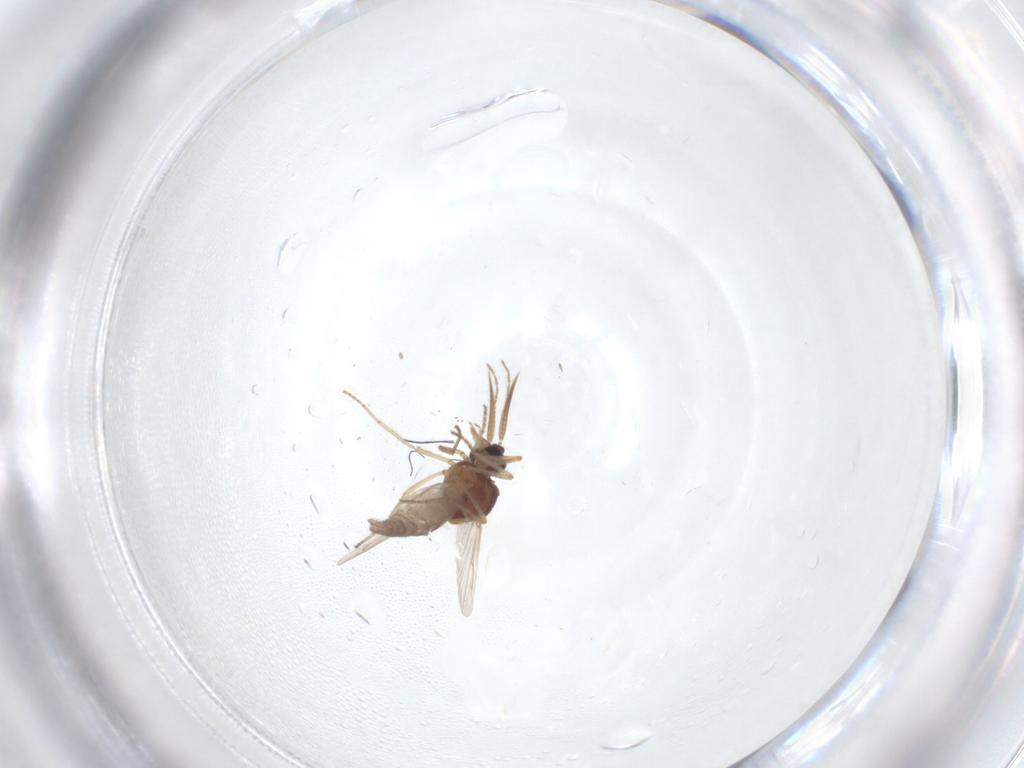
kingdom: Animalia
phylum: Arthropoda
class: Insecta
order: Diptera
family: Ceratopogonidae
